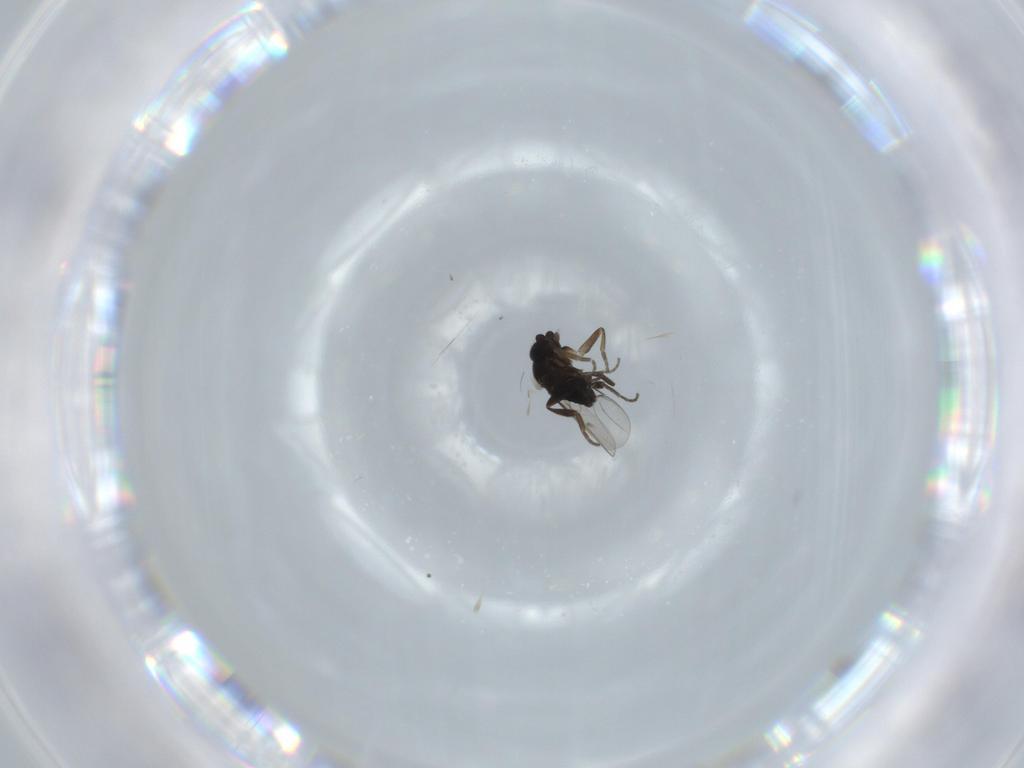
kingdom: Animalia
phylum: Arthropoda
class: Insecta
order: Diptera
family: Phoridae
